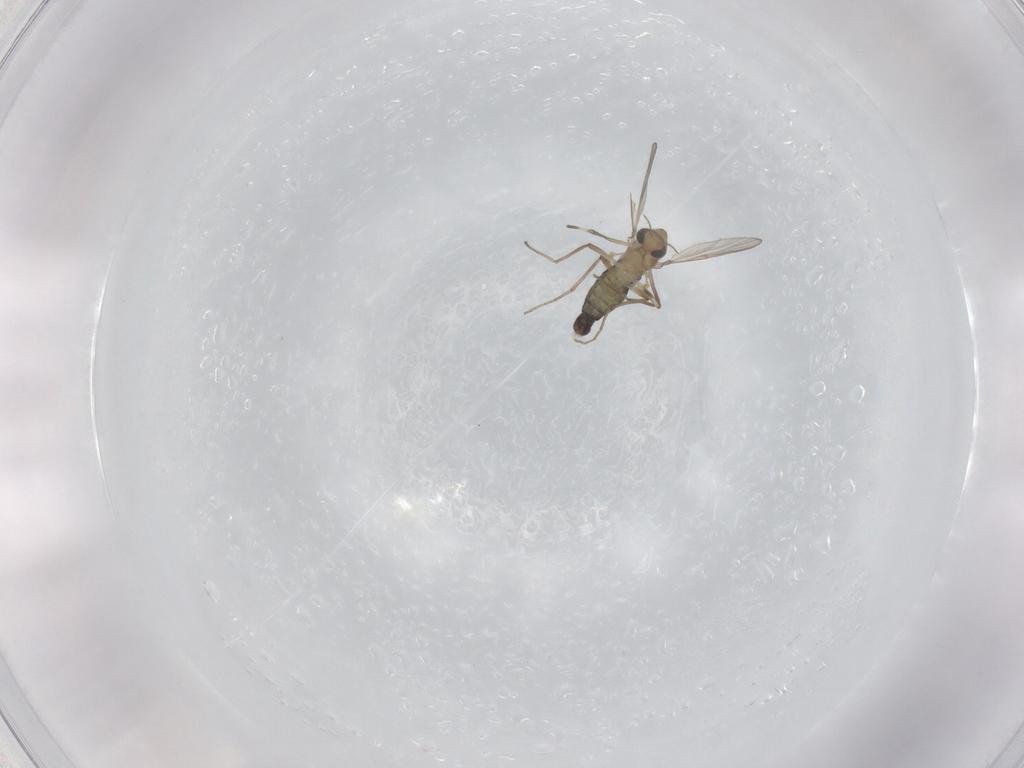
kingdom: Animalia
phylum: Arthropoda
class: Insecta
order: Diptera
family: Chironomidae
